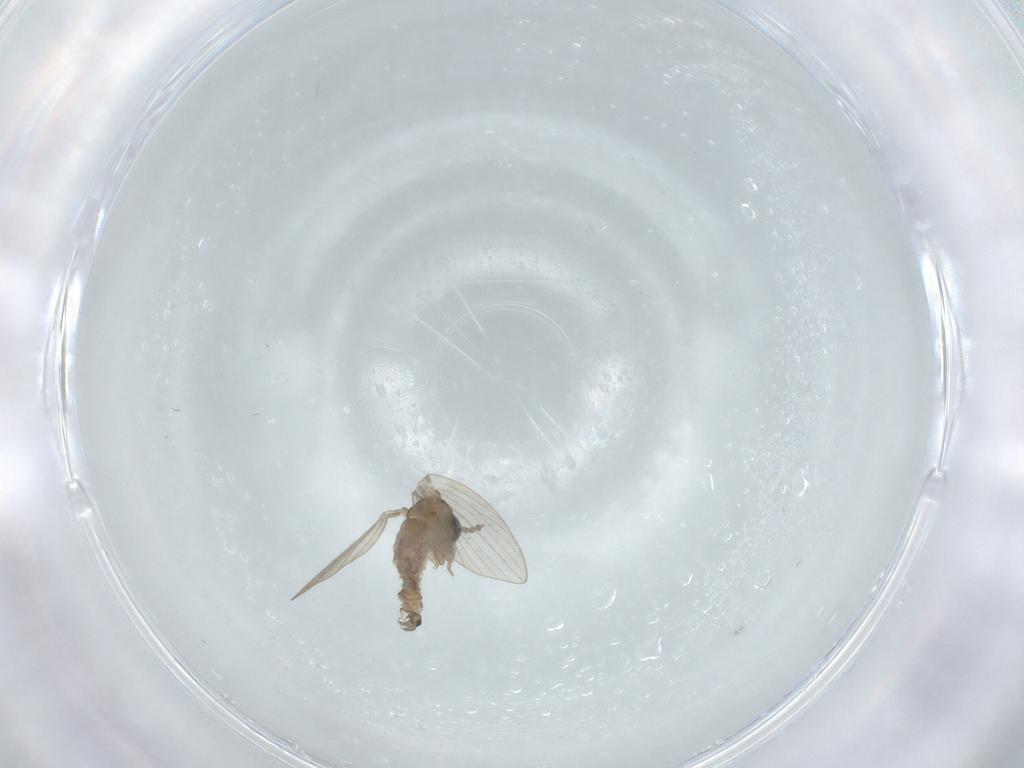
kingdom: Animalia
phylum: Arthropoda
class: Insecta
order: Diptera
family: Psychodidae
